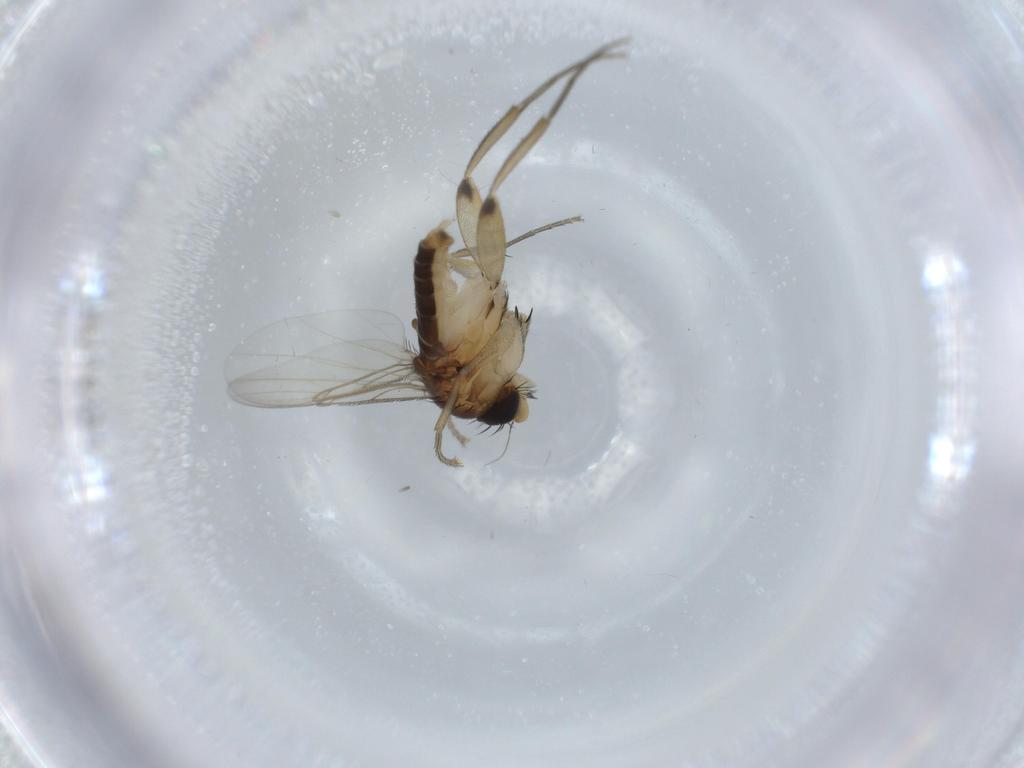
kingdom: Animalia
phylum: Arthropoda
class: Insecta
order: Diptera
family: Phoridae
